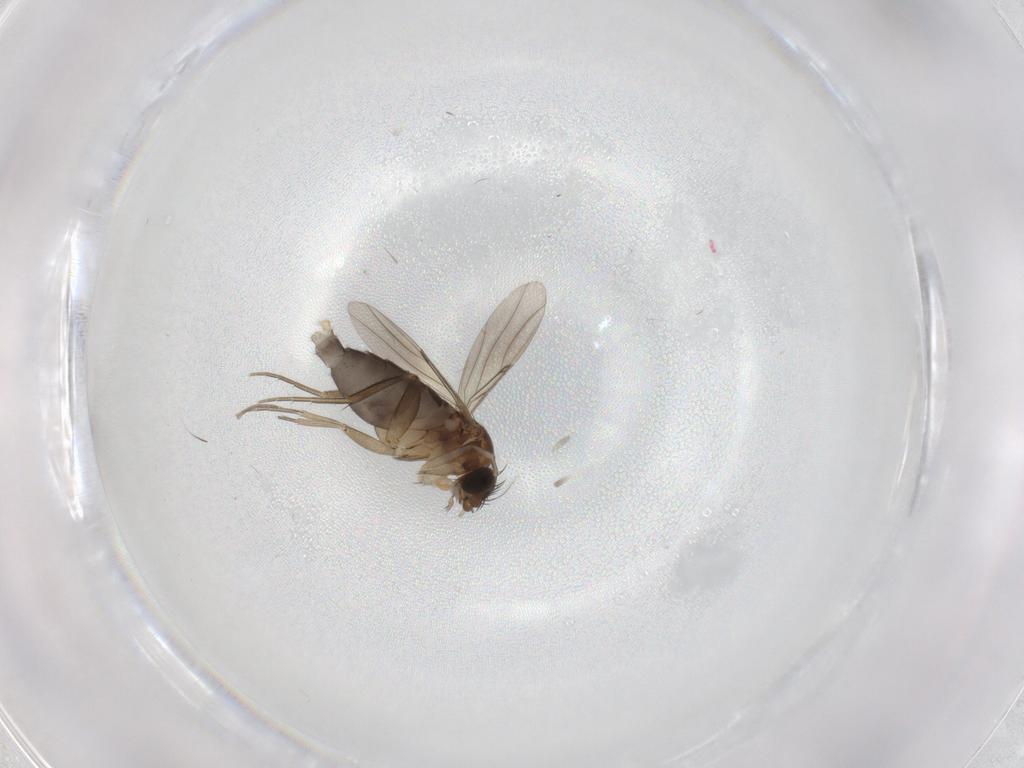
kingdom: Animalia
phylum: Arthropoda
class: Insecta
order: Diptera
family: Phoridae
